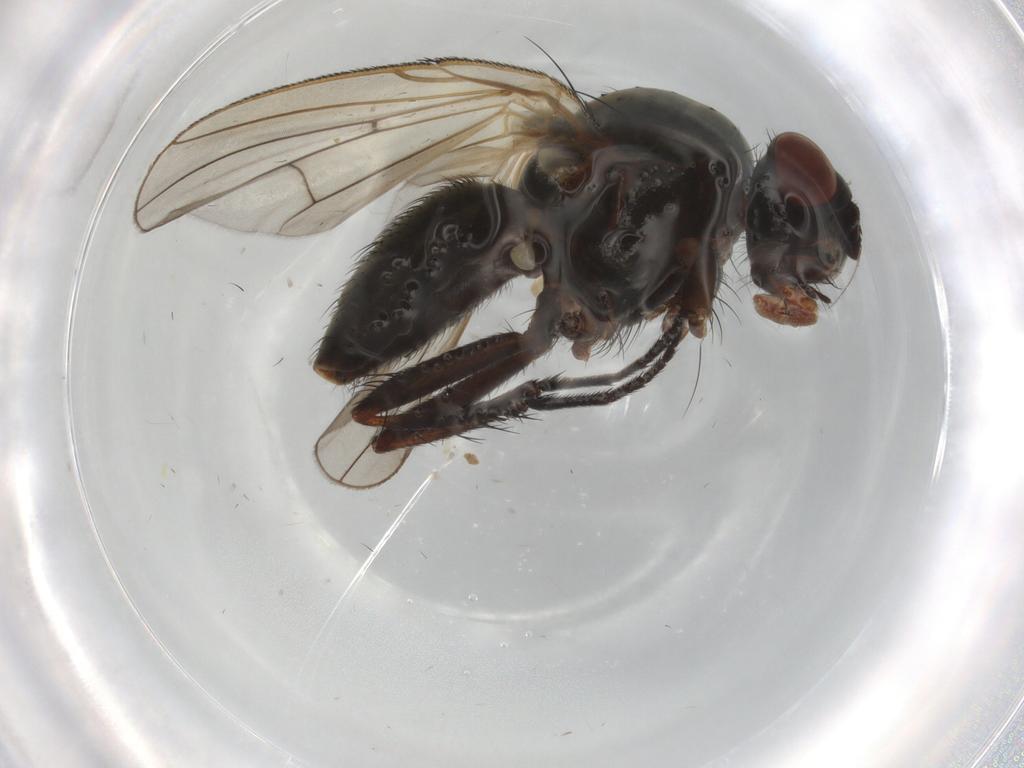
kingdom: Animalia
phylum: Arthropoda
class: Insecta
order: Diptera
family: Anthomyiidae
